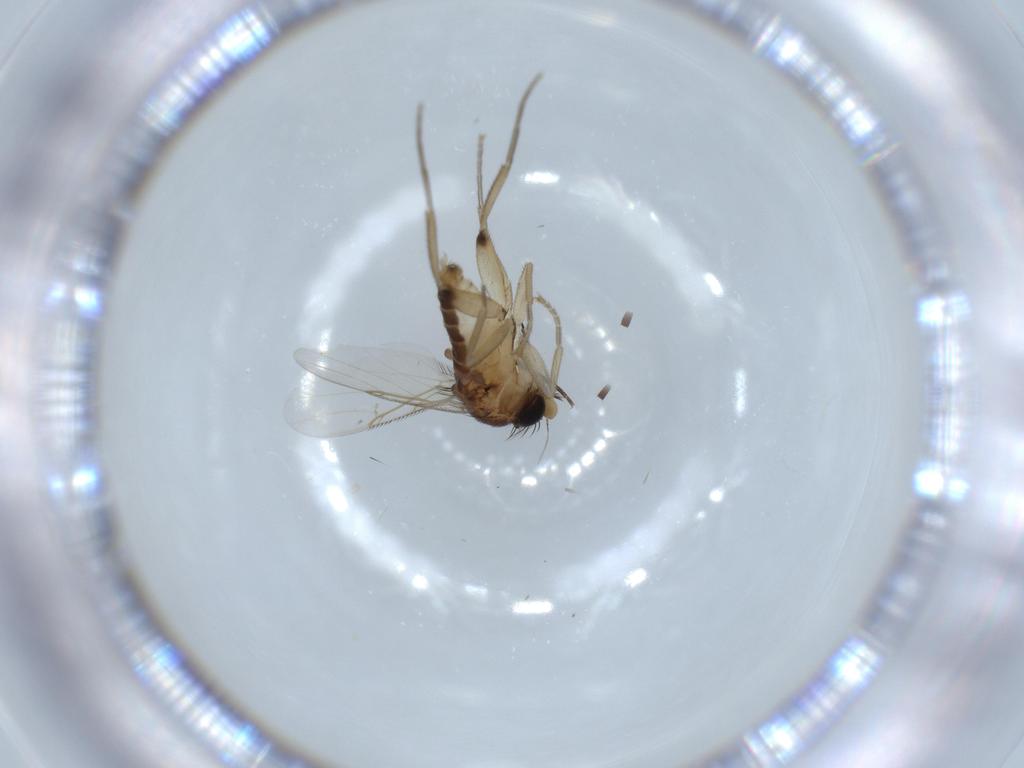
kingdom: Animalia
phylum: Arthropoda
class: Insecta
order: Diptera
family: Phoridae
